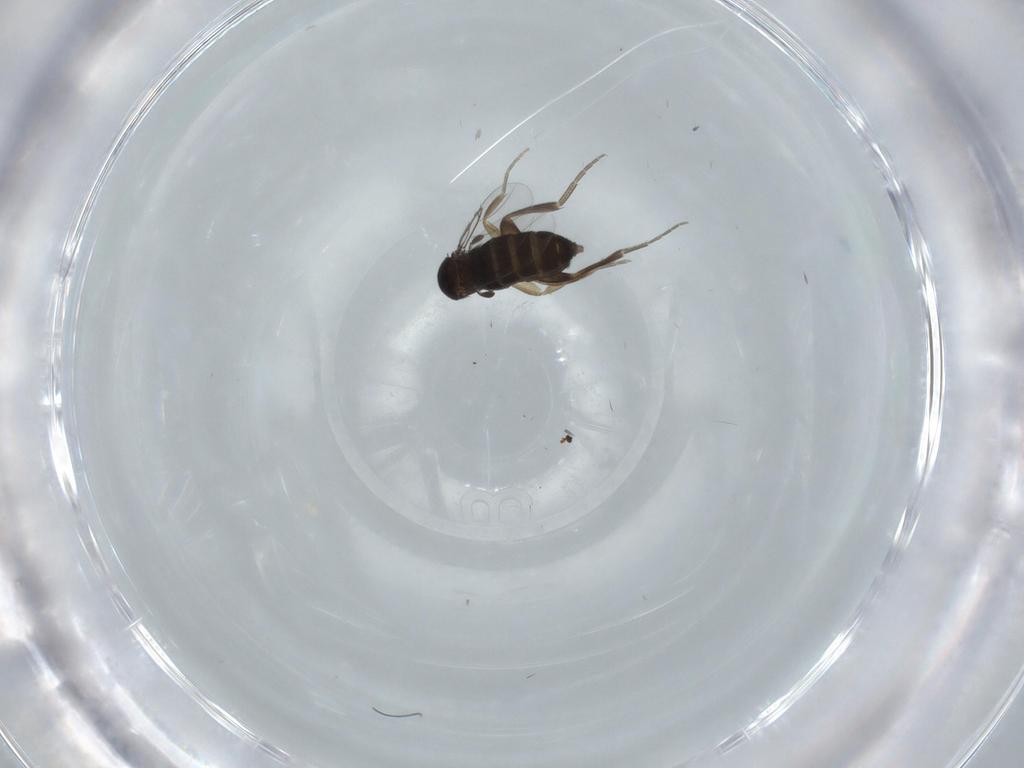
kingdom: Animalia
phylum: Arthropoda
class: Insecta
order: Diptera
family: Phoridae
